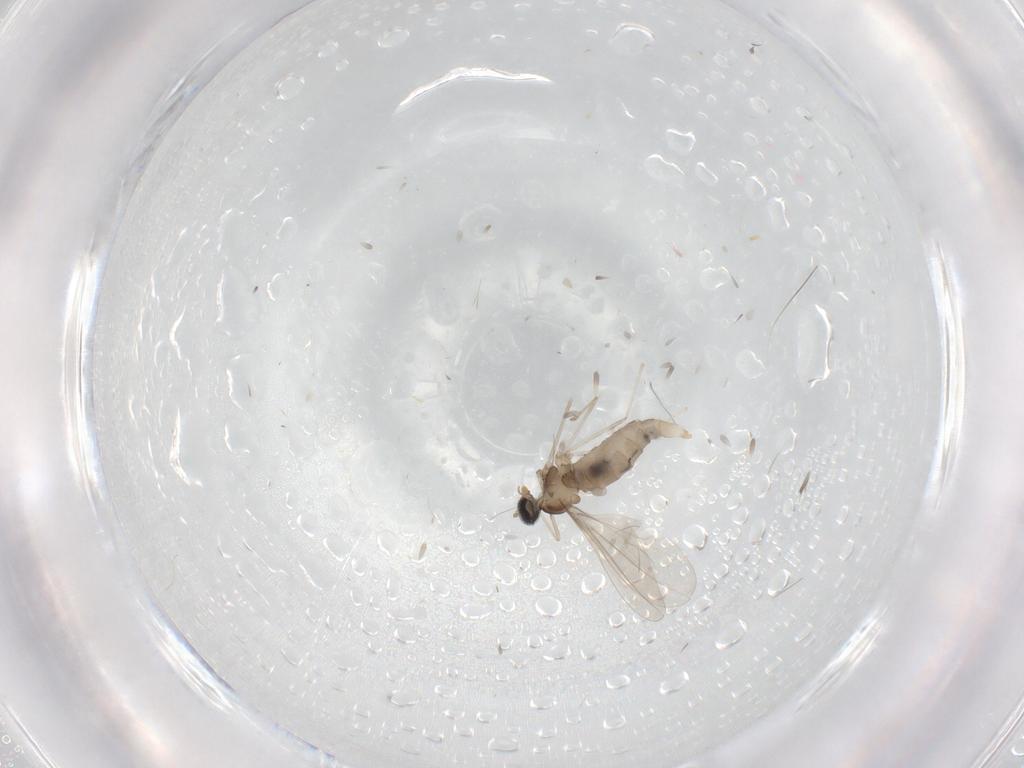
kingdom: Animalia
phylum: Arthropoda
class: Insecta
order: Diptera
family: Cecidomyiidae
